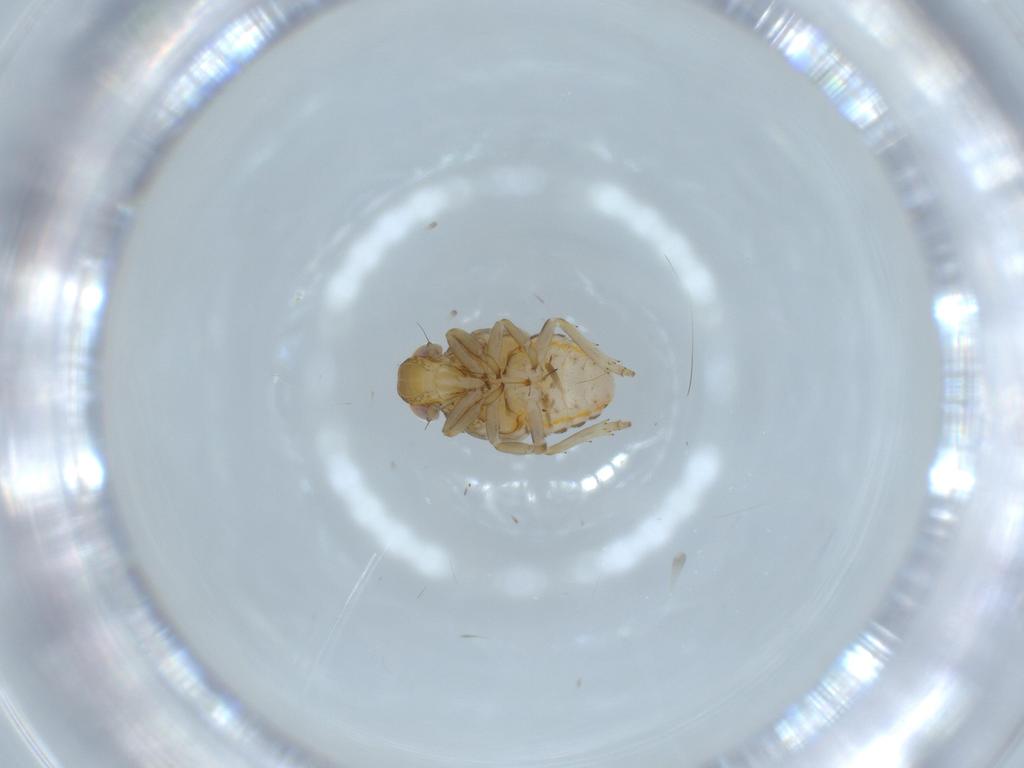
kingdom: Animalia
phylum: Arthropoda
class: Insecta
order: Hemiptera
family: Issidae
